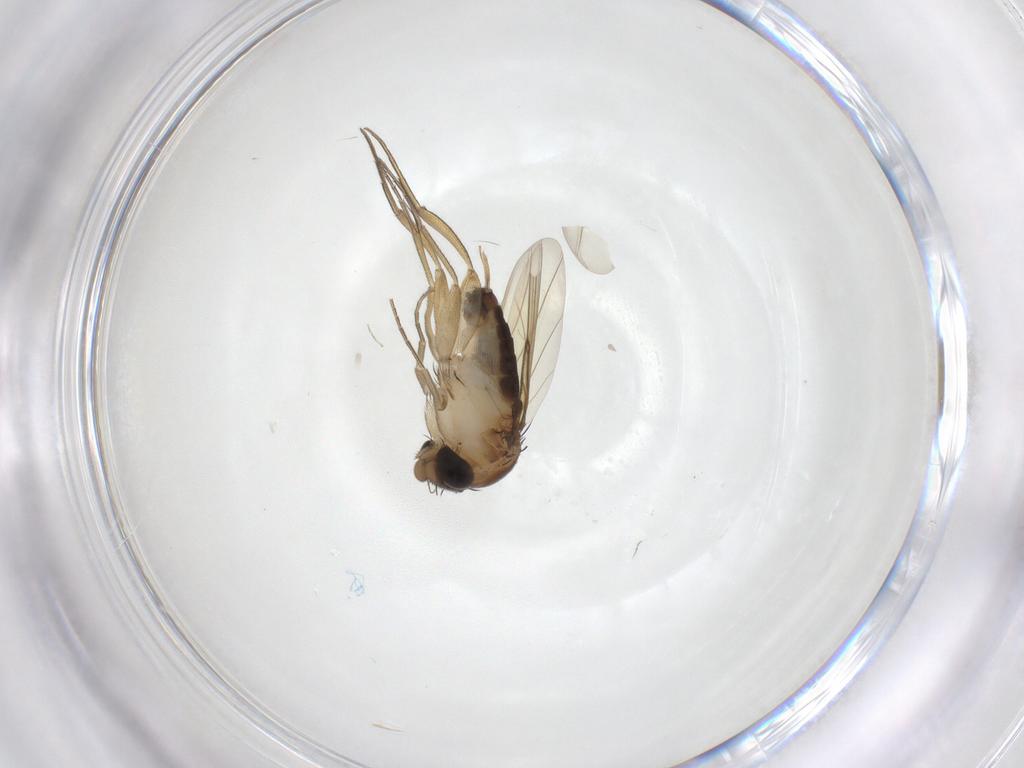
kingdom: Animalia
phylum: Arthropoda
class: Insecta
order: Diptera
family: Phoridae
